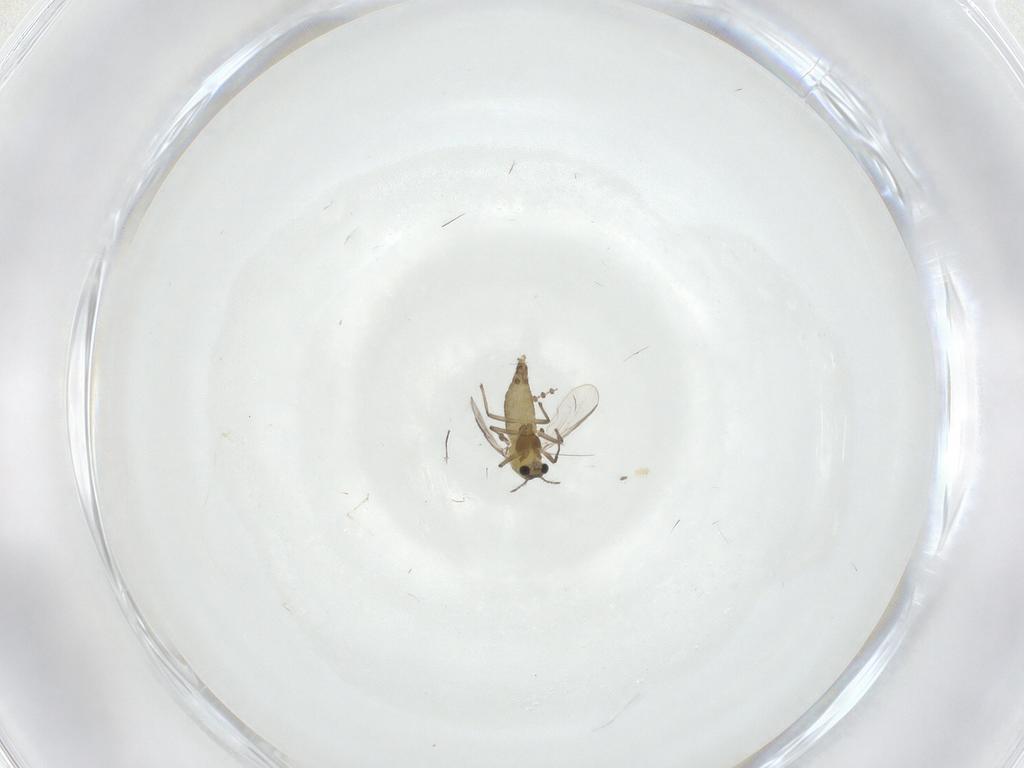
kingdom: Animalia
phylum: Arthropoda
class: Insecta
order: Diptera
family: Chironomidae
